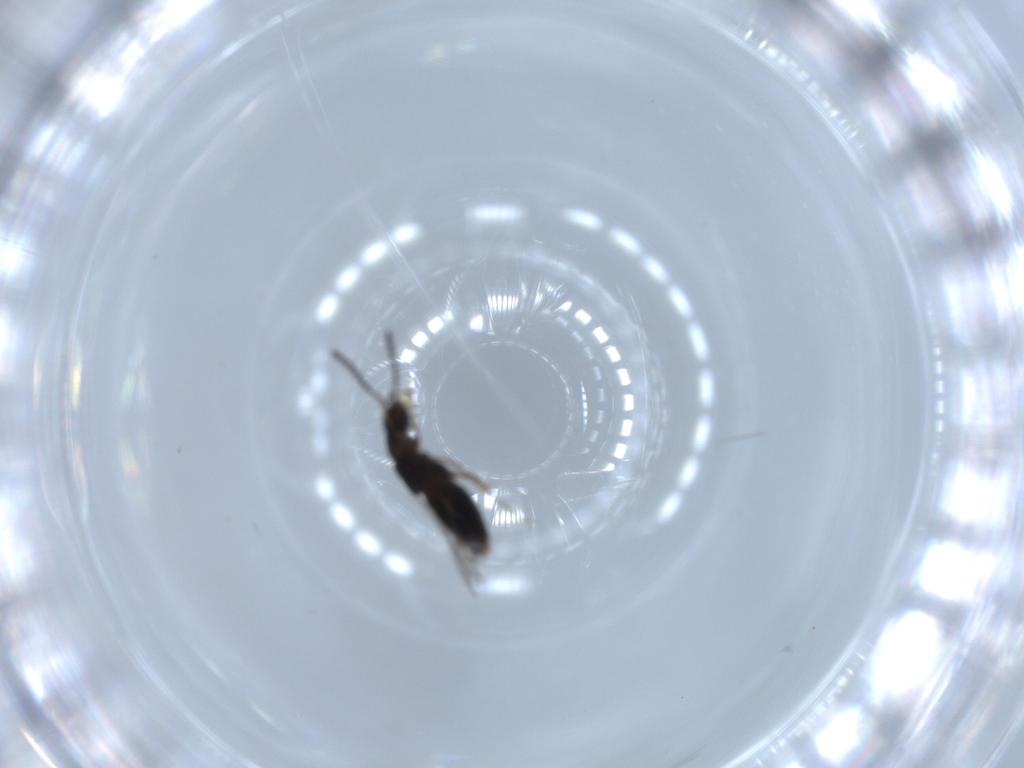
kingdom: Animalia
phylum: Arthropoda
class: Insecta
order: Coleoptera
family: Staphylinidae
